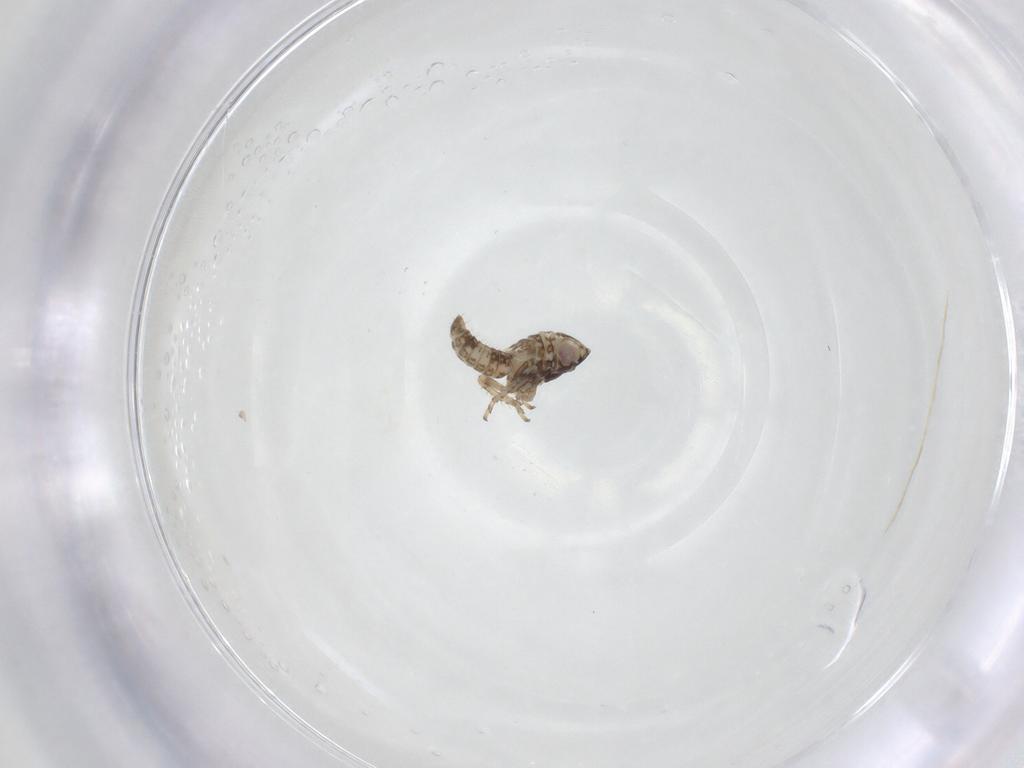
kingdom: Animalia
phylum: Arthropoda
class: Insecta
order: Hemiptera
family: Cicadellidae
